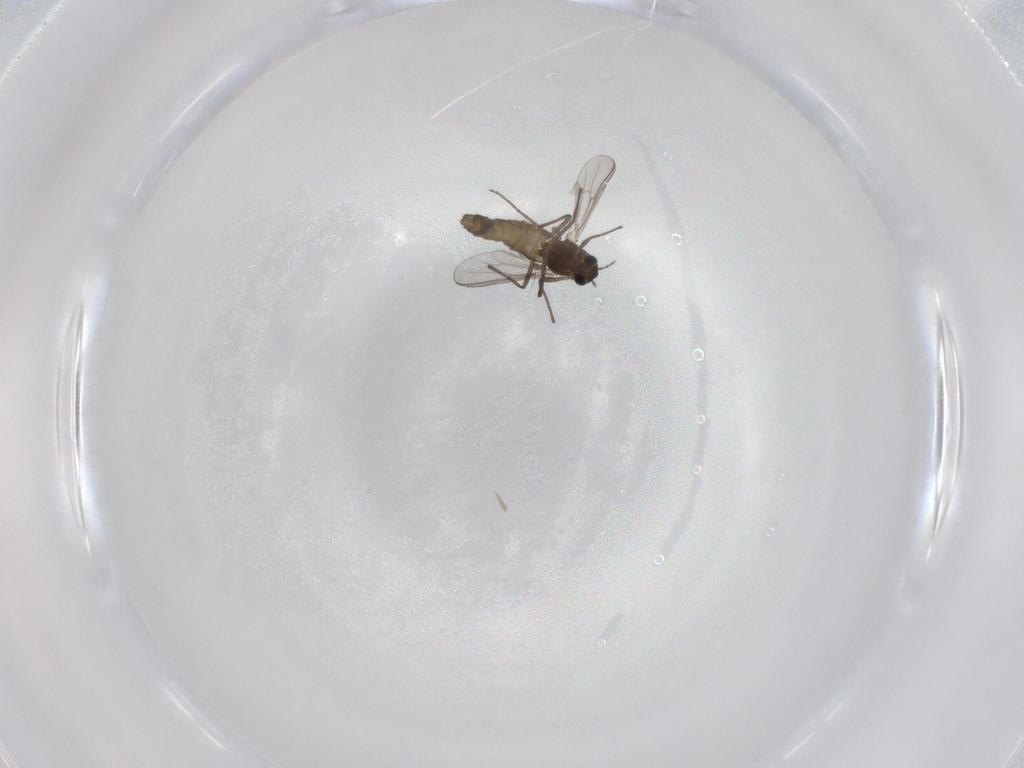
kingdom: Animalia
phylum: Arthropoda
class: Insecta
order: Diptera
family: Chironomidae
